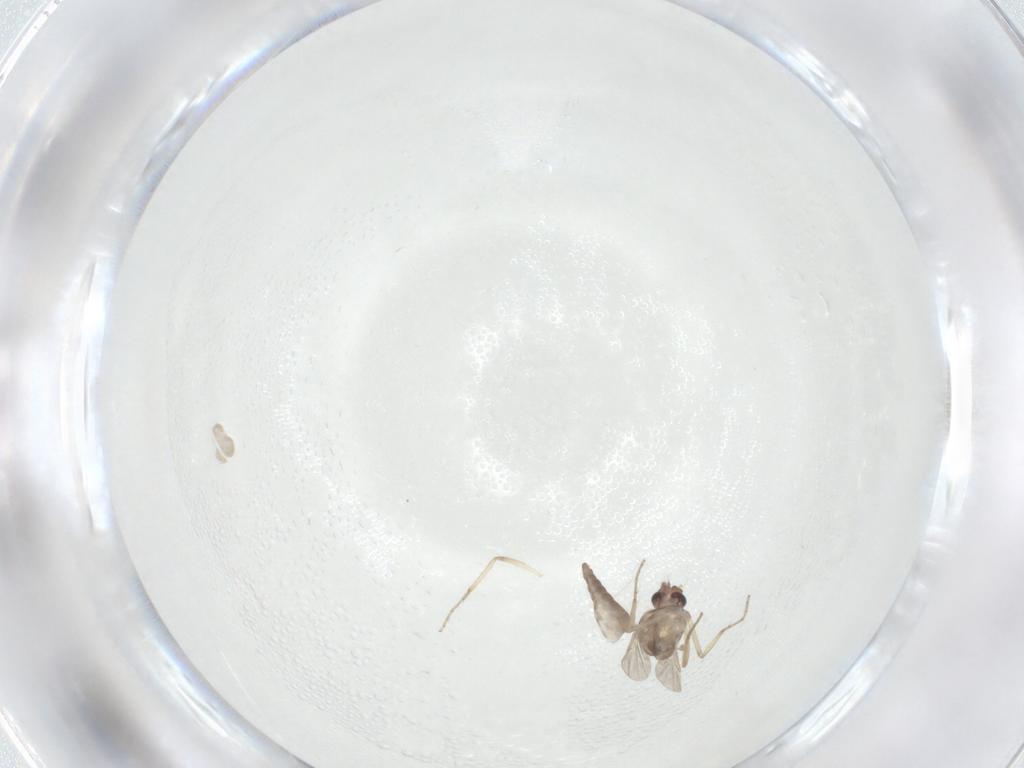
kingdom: Animalia
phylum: Arthropoda
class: Insecta
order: Diptera
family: Ceratopogonidae
